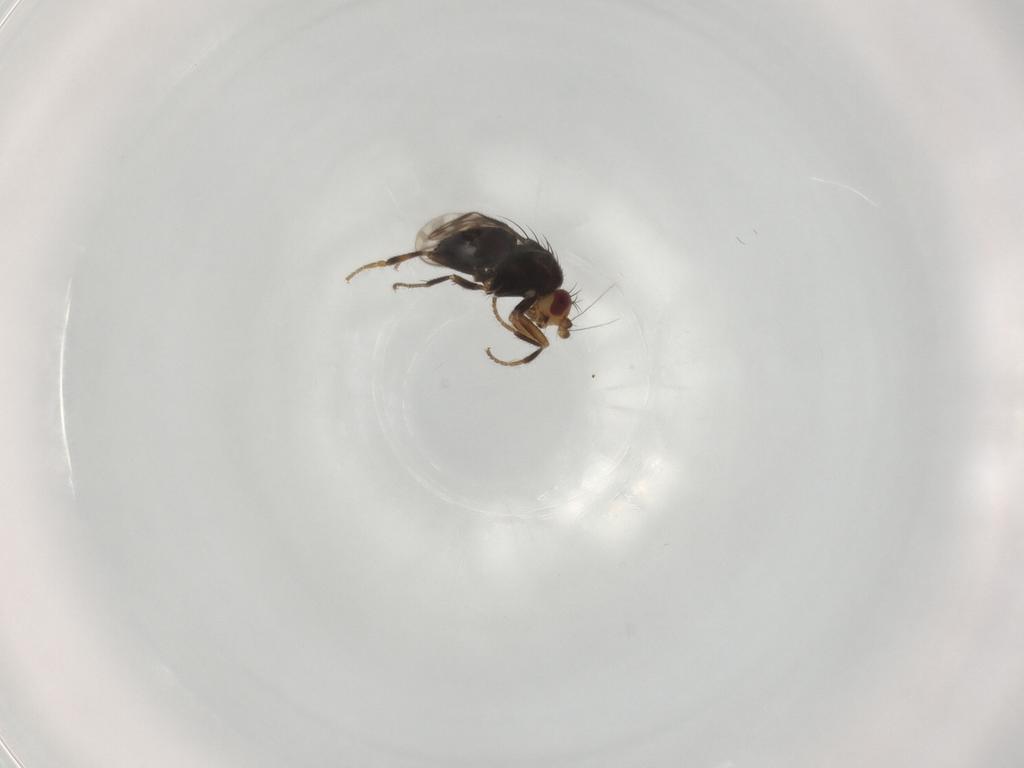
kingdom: Animalia
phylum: Arthropoda
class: Insecta
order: Diptera
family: Sphaeroceridae
